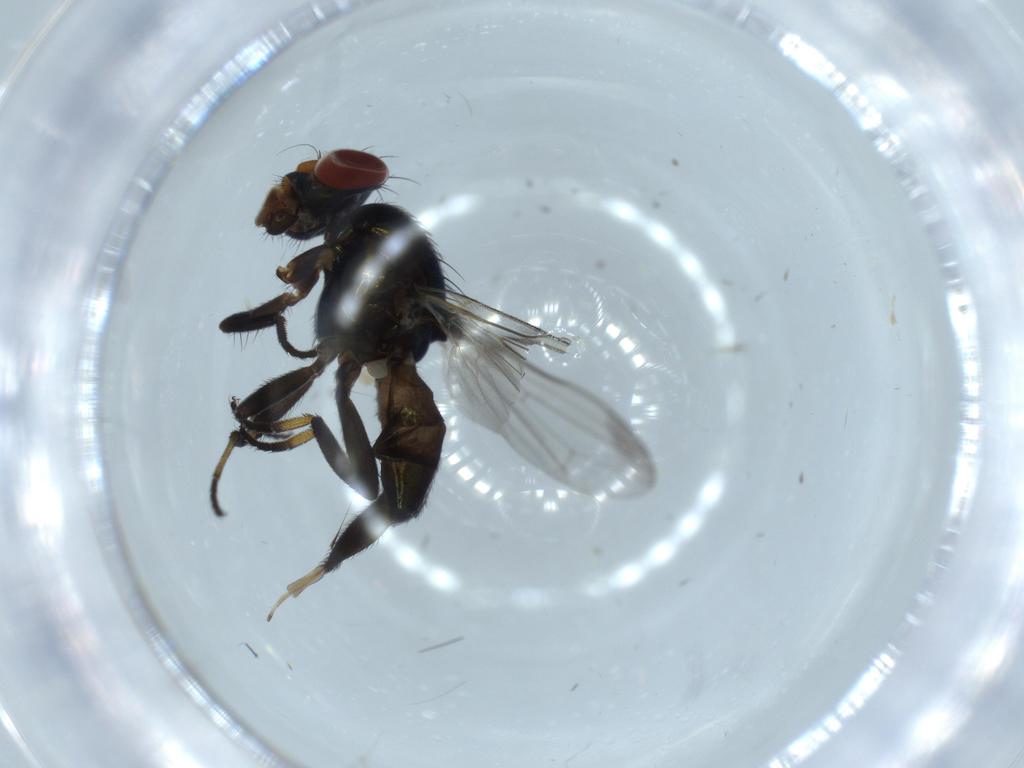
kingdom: Animalia
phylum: Arthropoda
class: Insecta
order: Diptera
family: Ulidiidae
